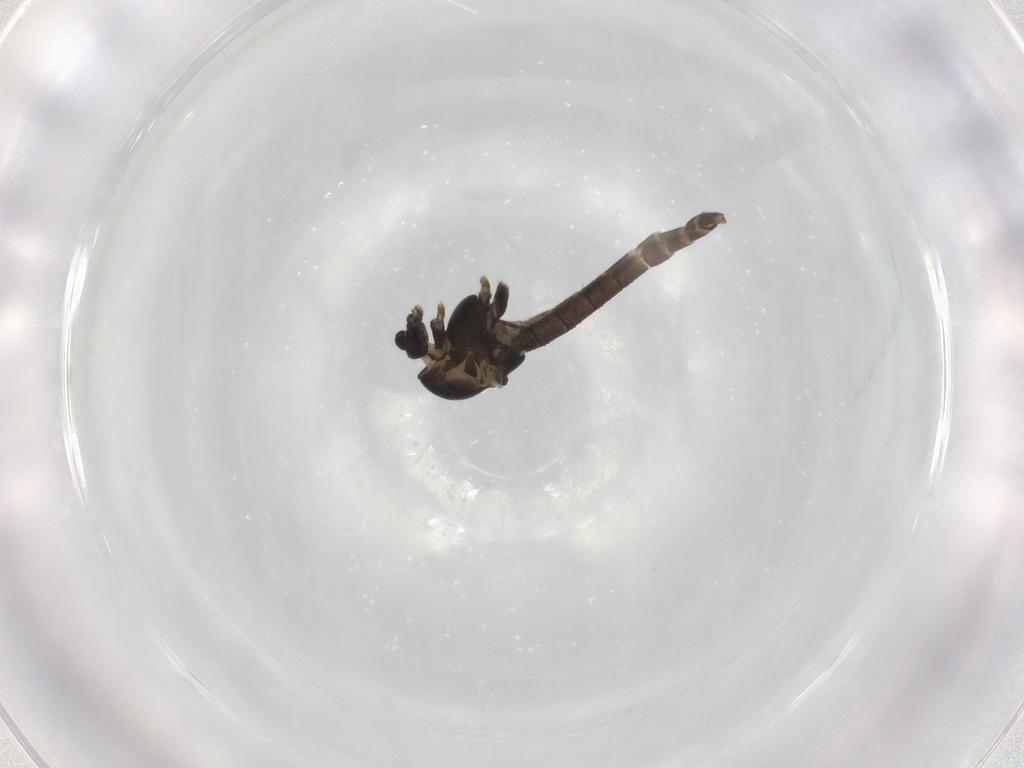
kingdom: Animalia
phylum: Arthropoda
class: Insecta
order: Diptera
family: Chironomidae
